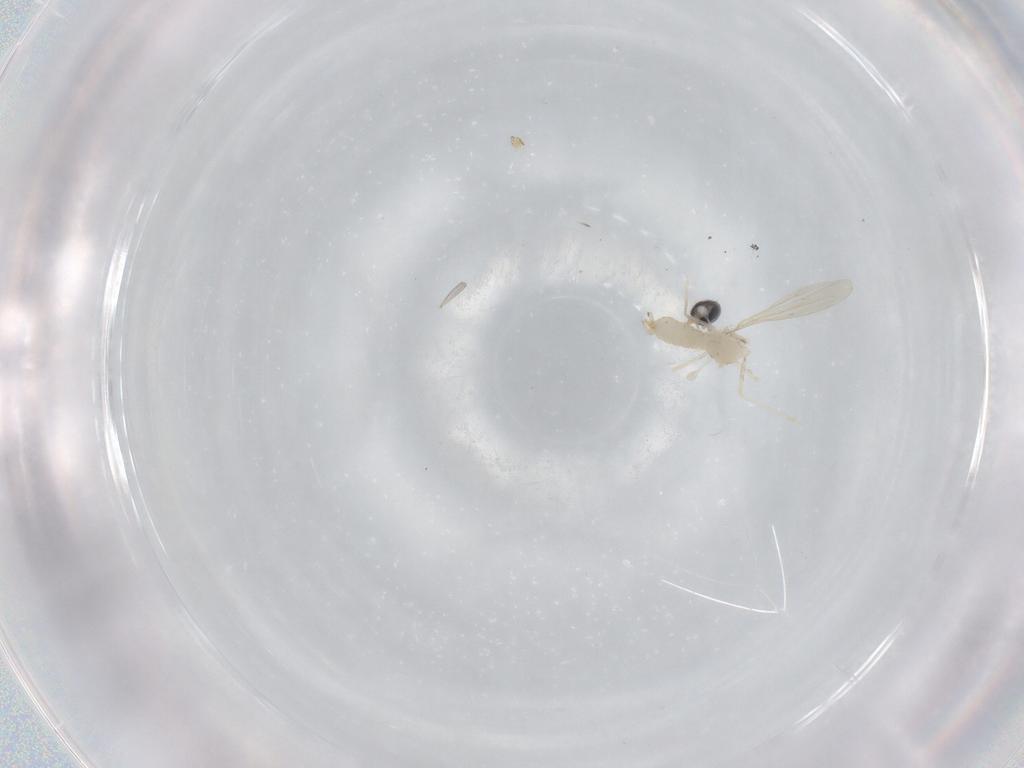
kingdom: Animalia
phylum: Arthropoda
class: Insecta
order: Diptera
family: Cecidomyiidae
